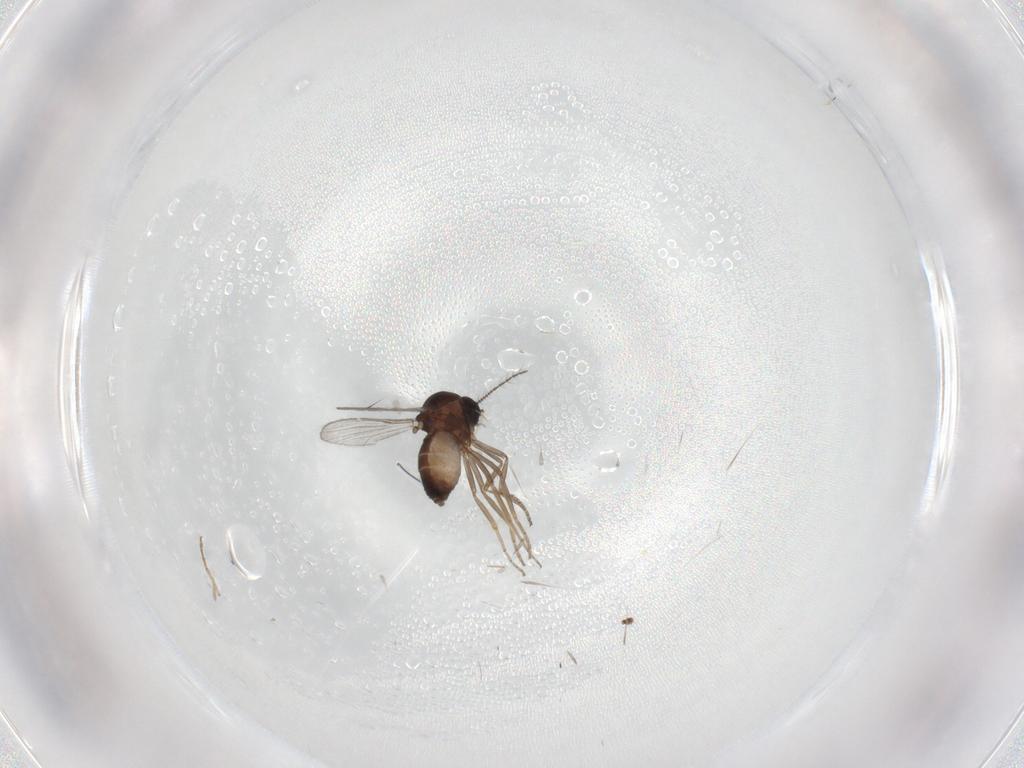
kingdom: Animalia
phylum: Arthropoda
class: Insecta
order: Diptera
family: Chironomidae
